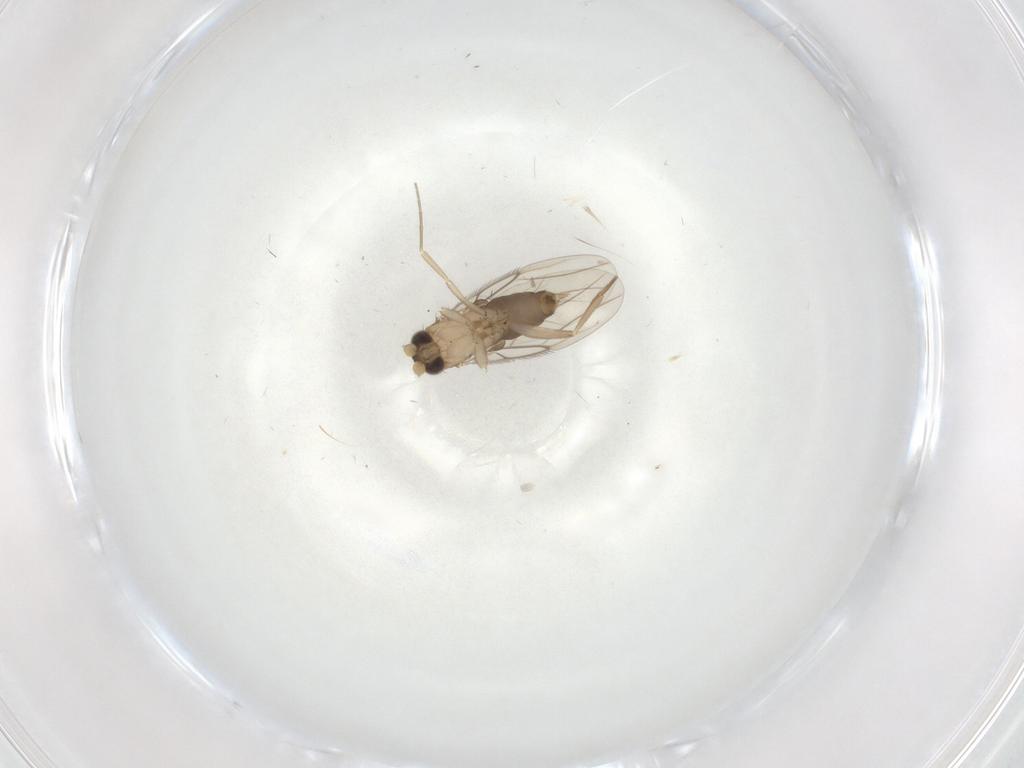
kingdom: Animalia
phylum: Arthropoda
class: Insecta
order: Diptera
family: Phoridae
